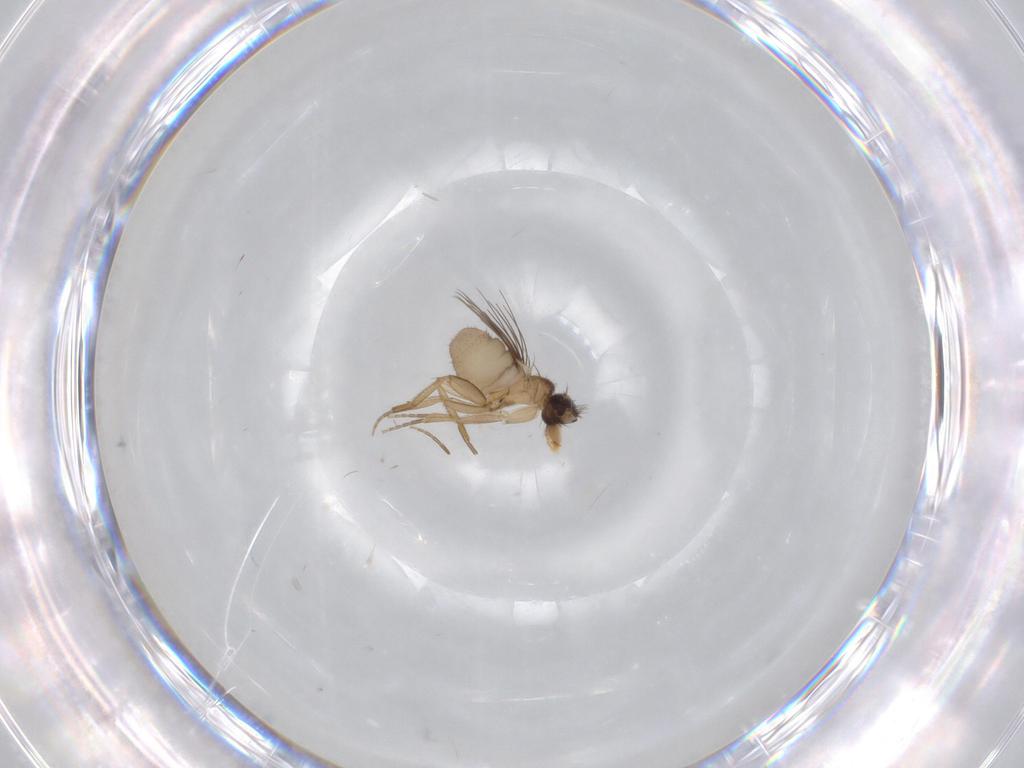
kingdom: Animalia
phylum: Arthropoda
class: Insecta
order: Diptera
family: Phoridae
